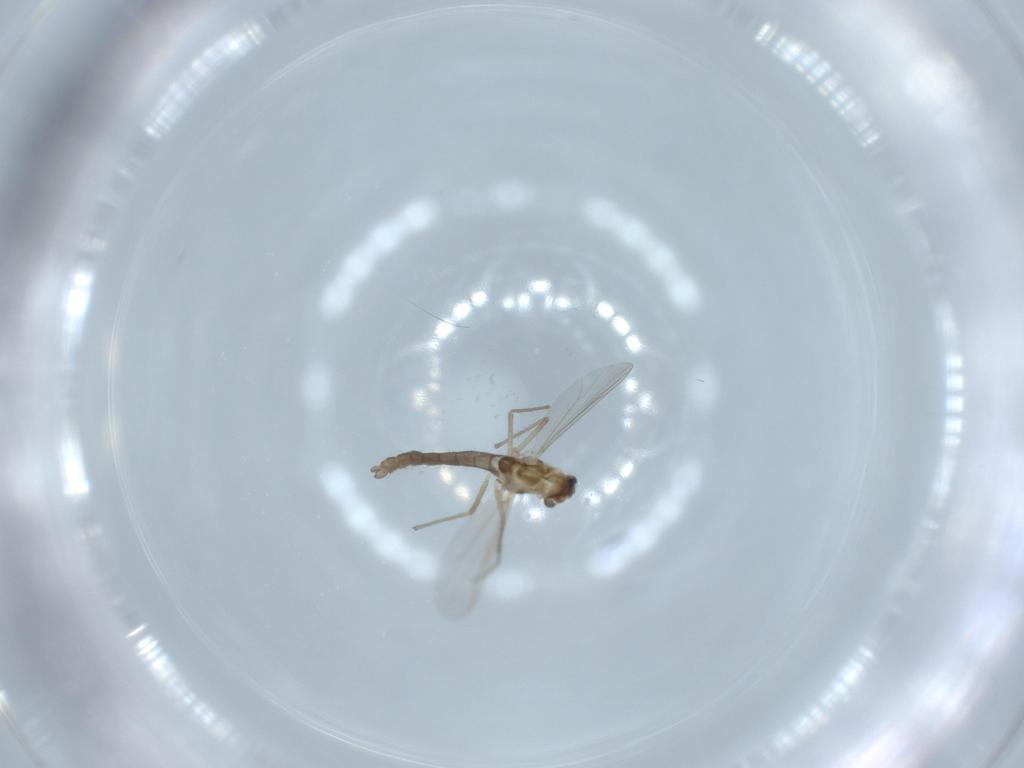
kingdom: Animalia
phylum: Arthropoda
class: Insecta
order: Diptera
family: Chironomidae
